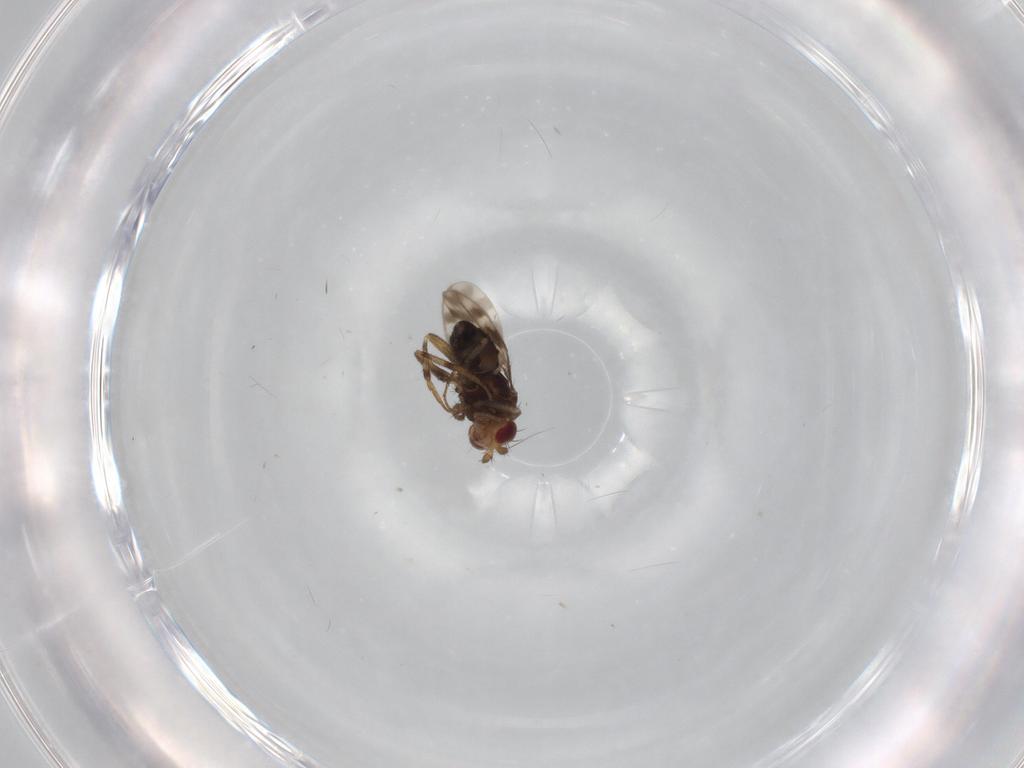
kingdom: Animalia
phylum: Arthropoda
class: Insecta
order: Diptera
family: Sphaeroceridae
